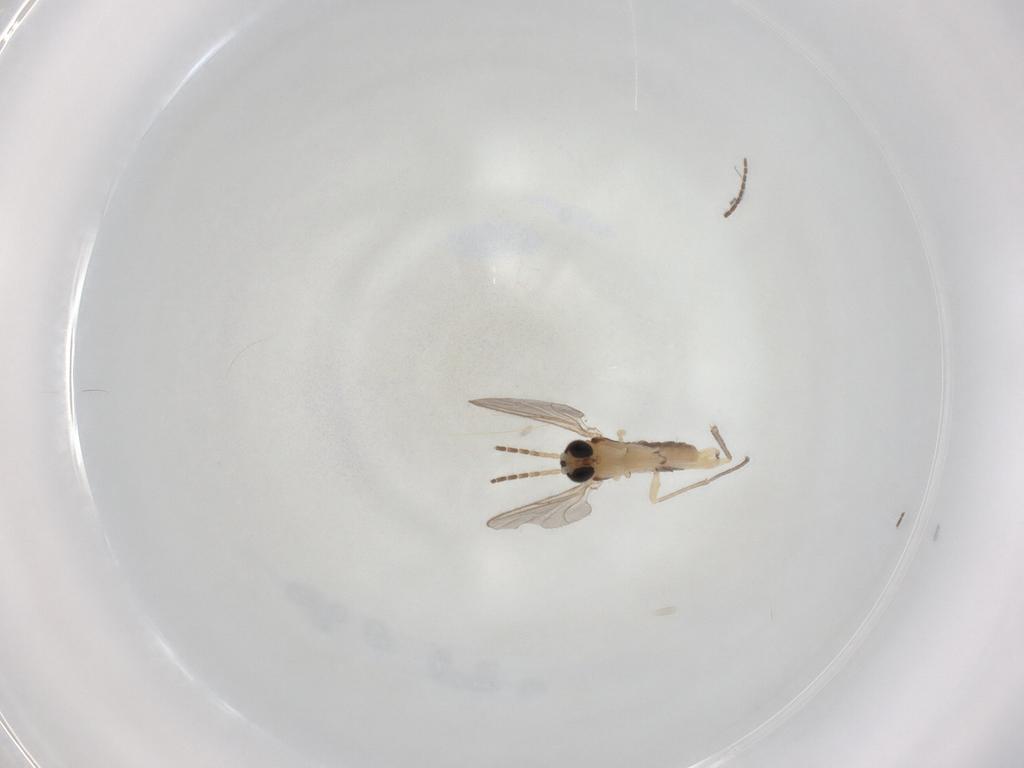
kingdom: Animalia
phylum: Arthropoda
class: Insecta
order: Diptera
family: Sciaridae
